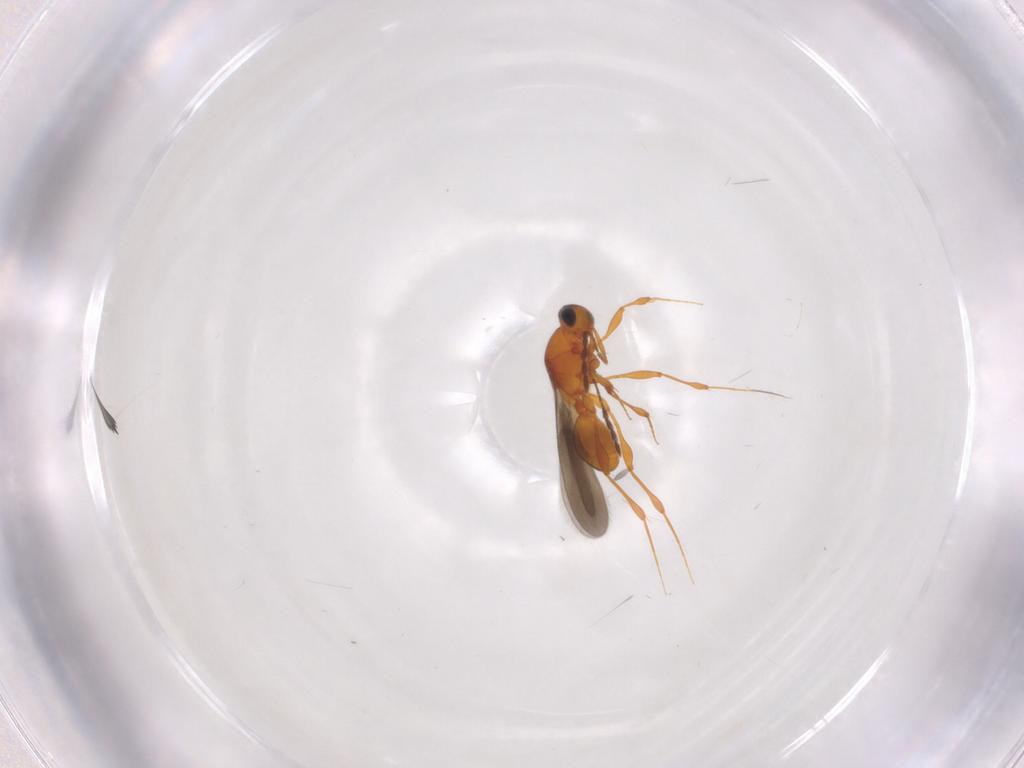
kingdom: Animalia
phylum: Arthropoda
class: Insecta
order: Hymenoptera
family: Platygastridae
